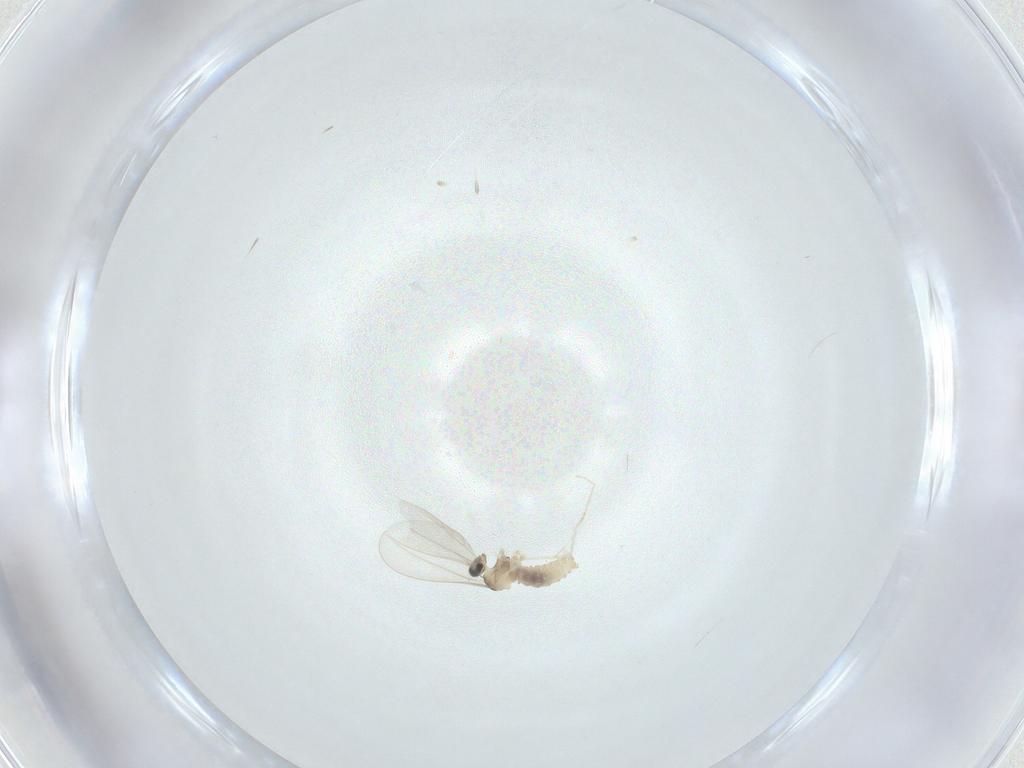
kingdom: Animalia
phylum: Arthropoda
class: Insecta
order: Diptera
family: Cecidomyiidae
